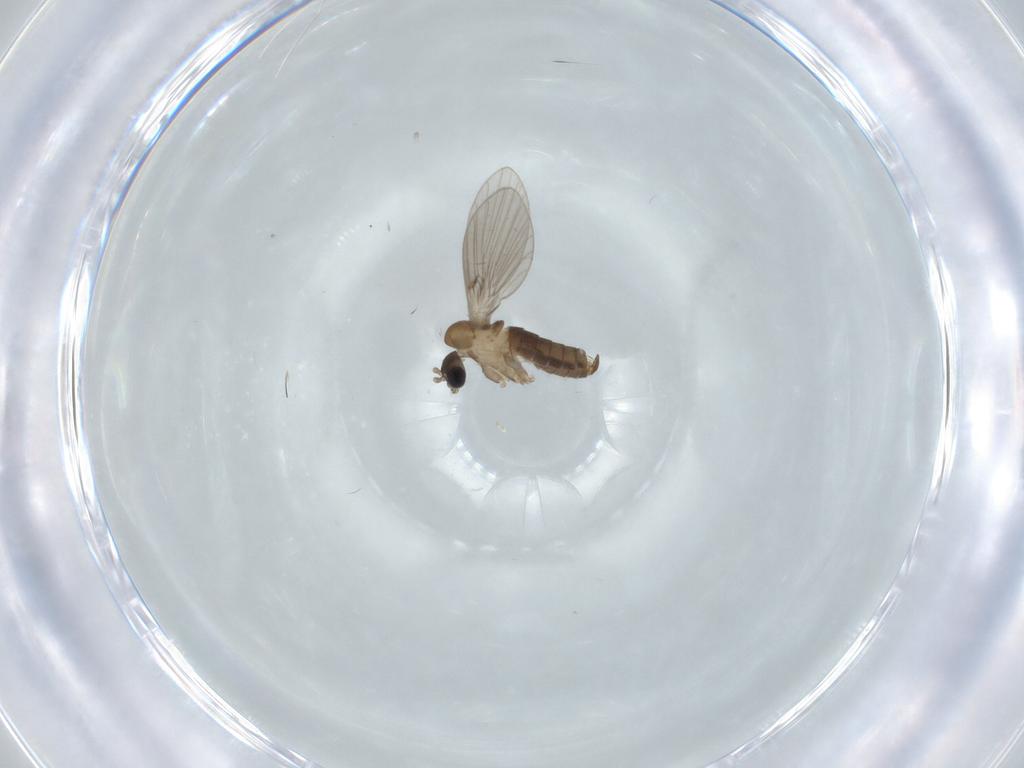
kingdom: Animalia
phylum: Arthropoda
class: Insecta
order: Diptera
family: Psychodidae
